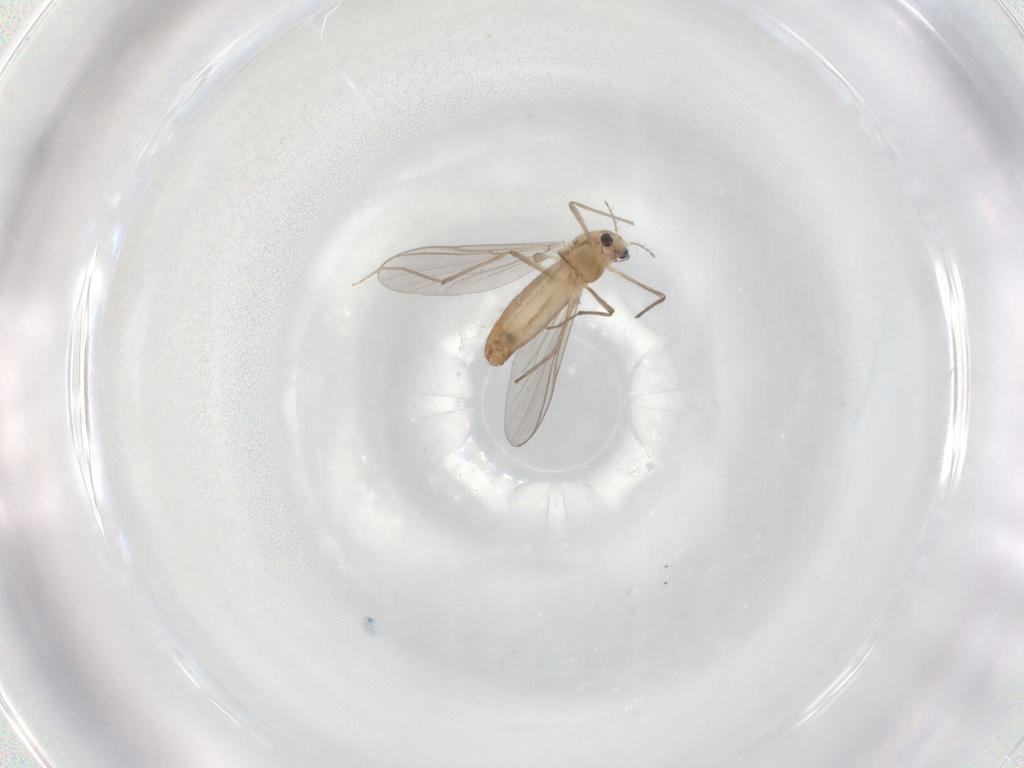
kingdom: Animalia
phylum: Arthropoda
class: Insecta
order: Diptera
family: Chironomidae
